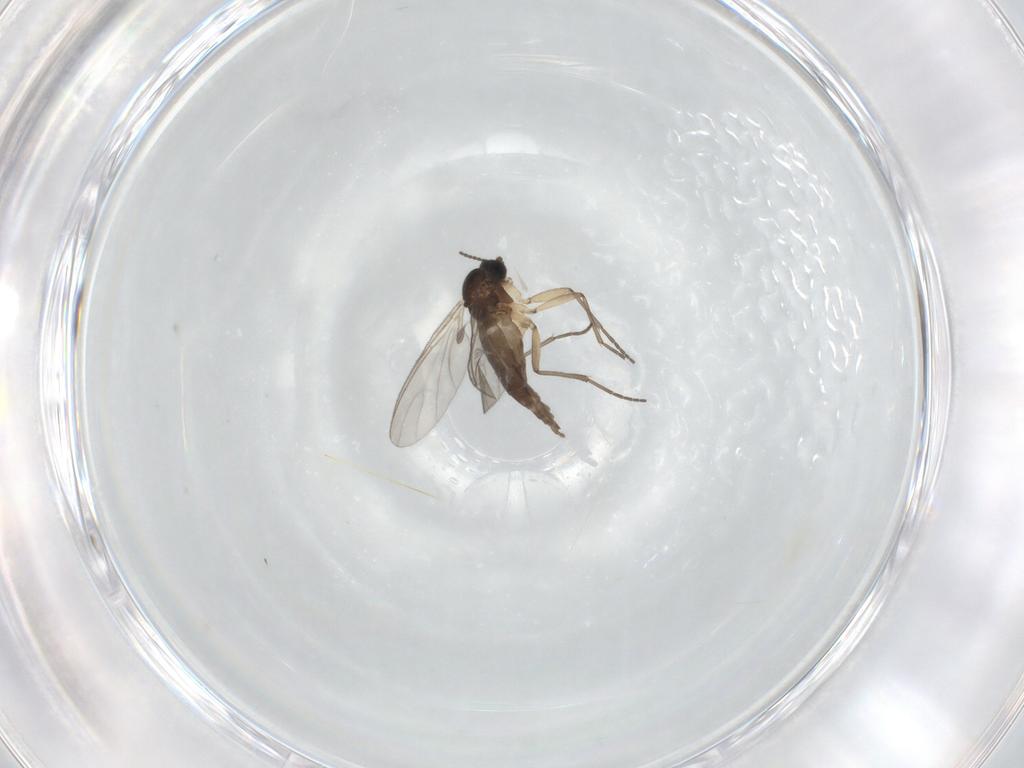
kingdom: Animalia
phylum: Arthropoda
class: Insecta
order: Diptera
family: Sciaridae
